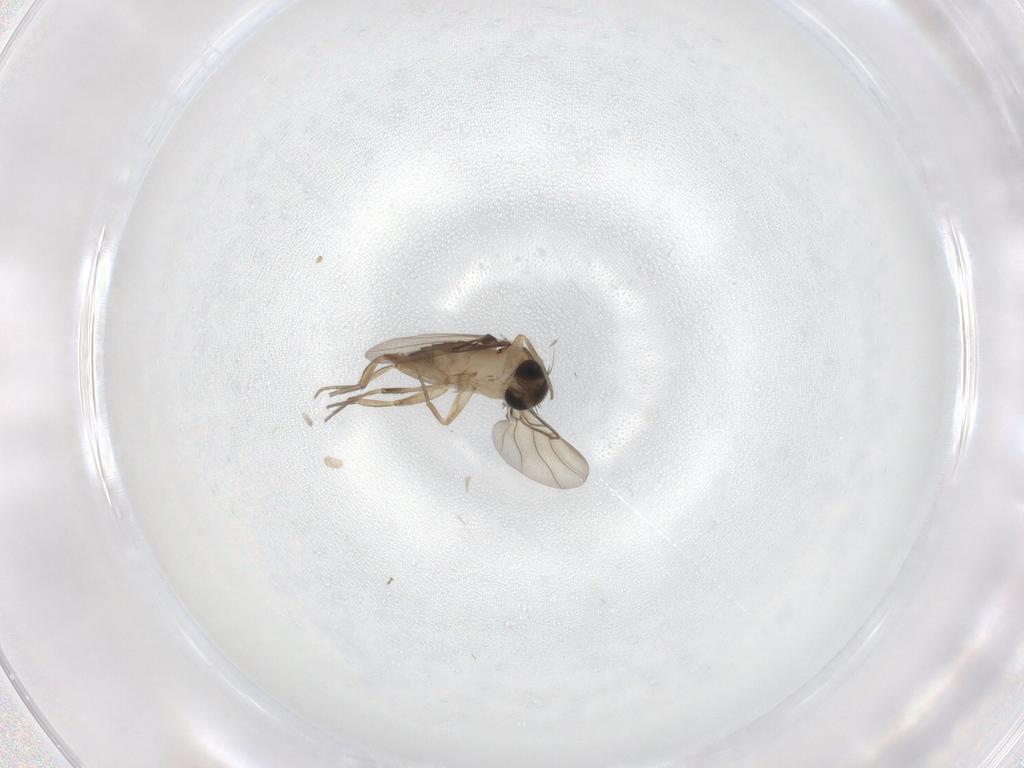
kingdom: Animalia
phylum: Arthropoda
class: Insecta
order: Diptera
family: Phoridae
